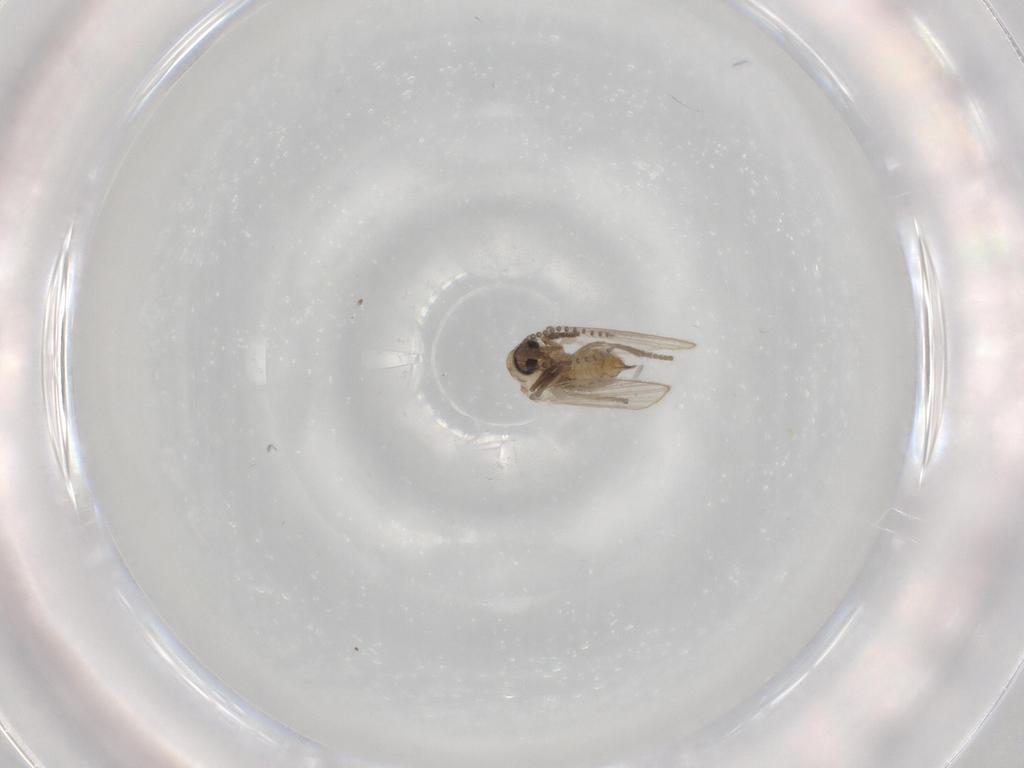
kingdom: Animalia
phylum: Arthropoda
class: Insecta
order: Diptera
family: Psychodidae
